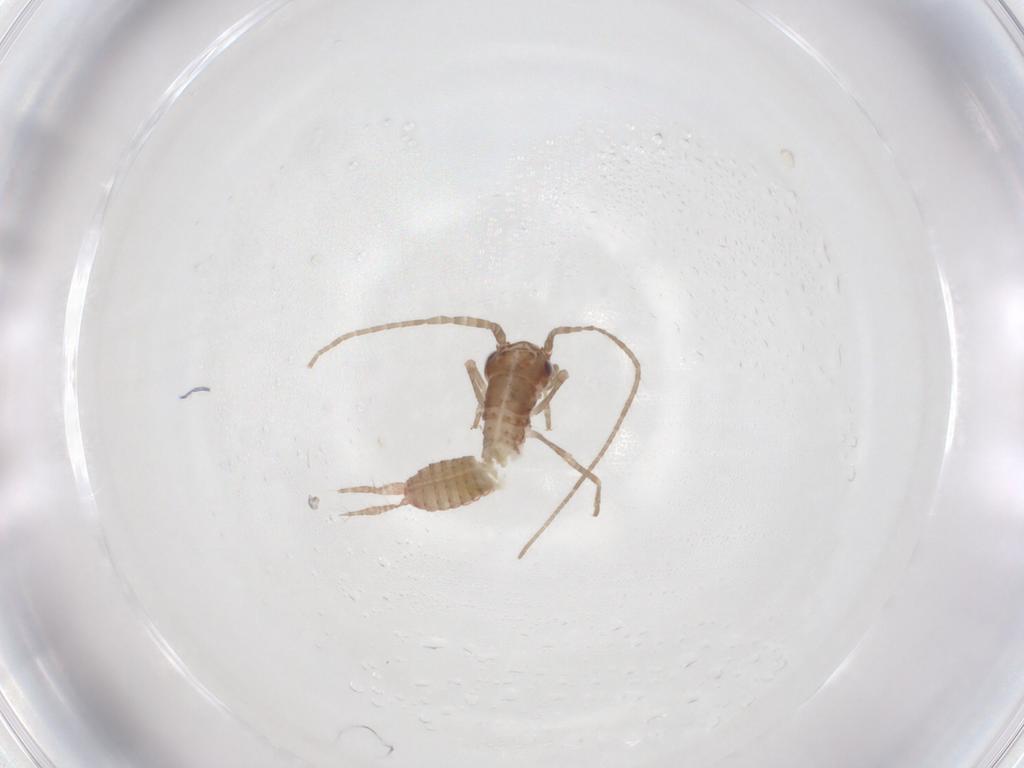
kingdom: Animalia
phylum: Arthropoda
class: Insecta
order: Orthoptera
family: Mogoplistidae
